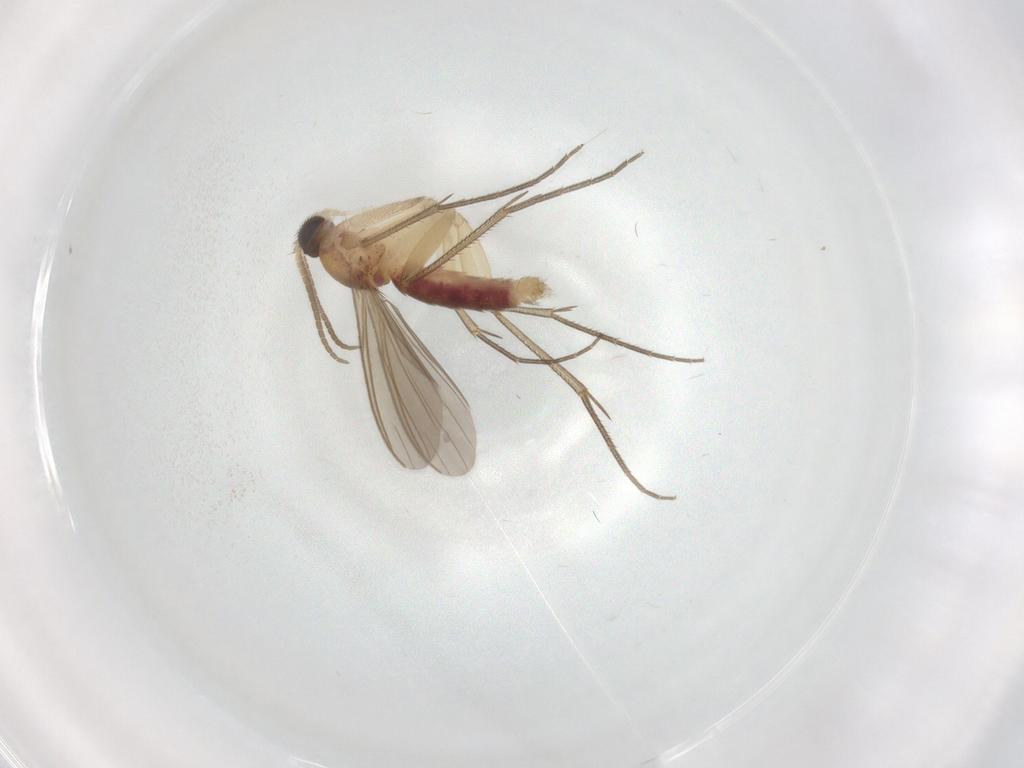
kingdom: Animalia
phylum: Arthropoda
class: Insecta
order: Diptera
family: Mycetophilidae
